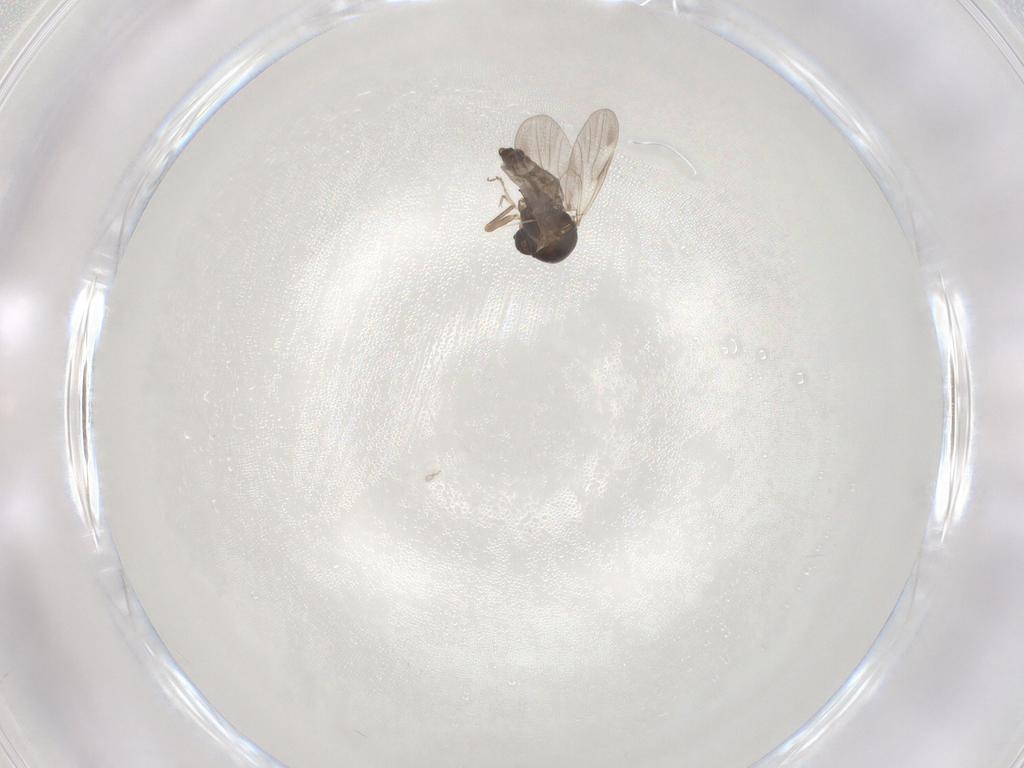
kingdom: Animalia
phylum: Arthropoda
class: Insecta
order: Diptera
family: Ceratopogonidae
